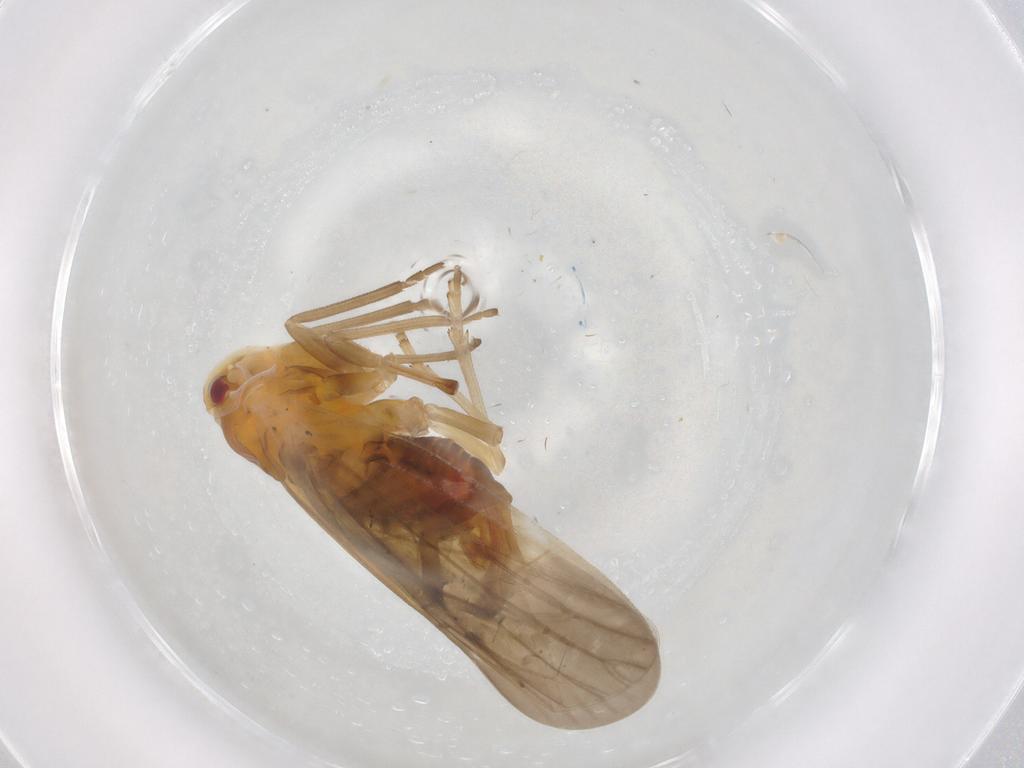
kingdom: Animalia
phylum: Arthropoda
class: Insecta
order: Hemiptera
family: Derbidae
